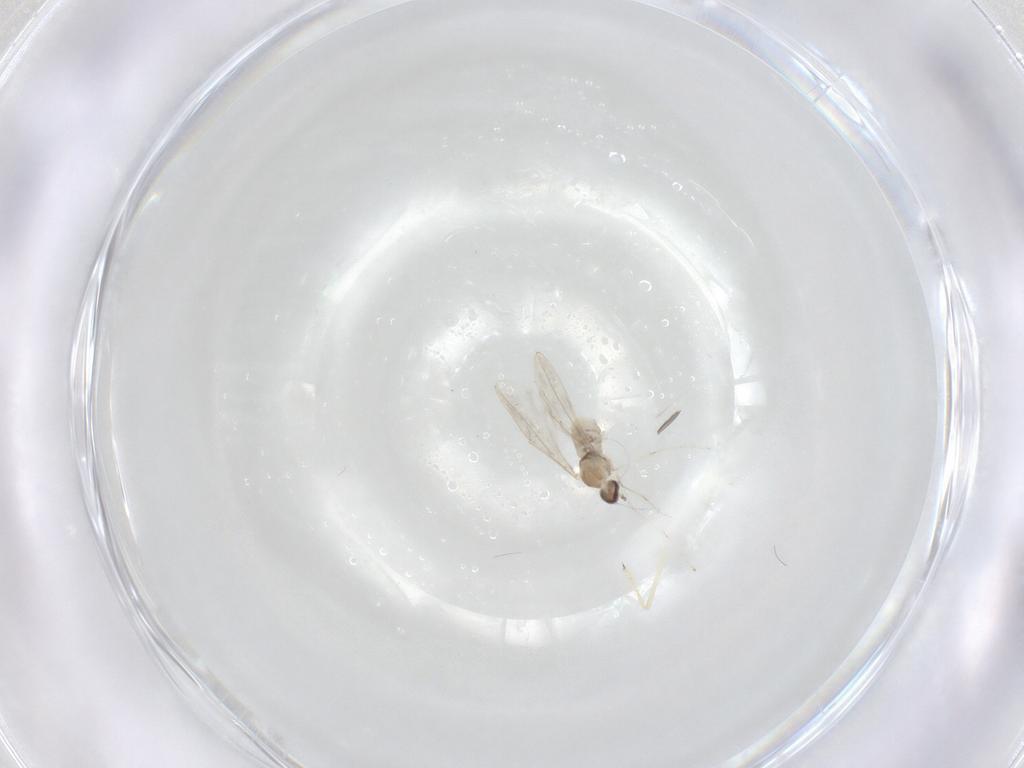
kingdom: Animalia
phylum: Arthropoda
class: Insecta
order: Diptera
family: Cecidomyiidae
